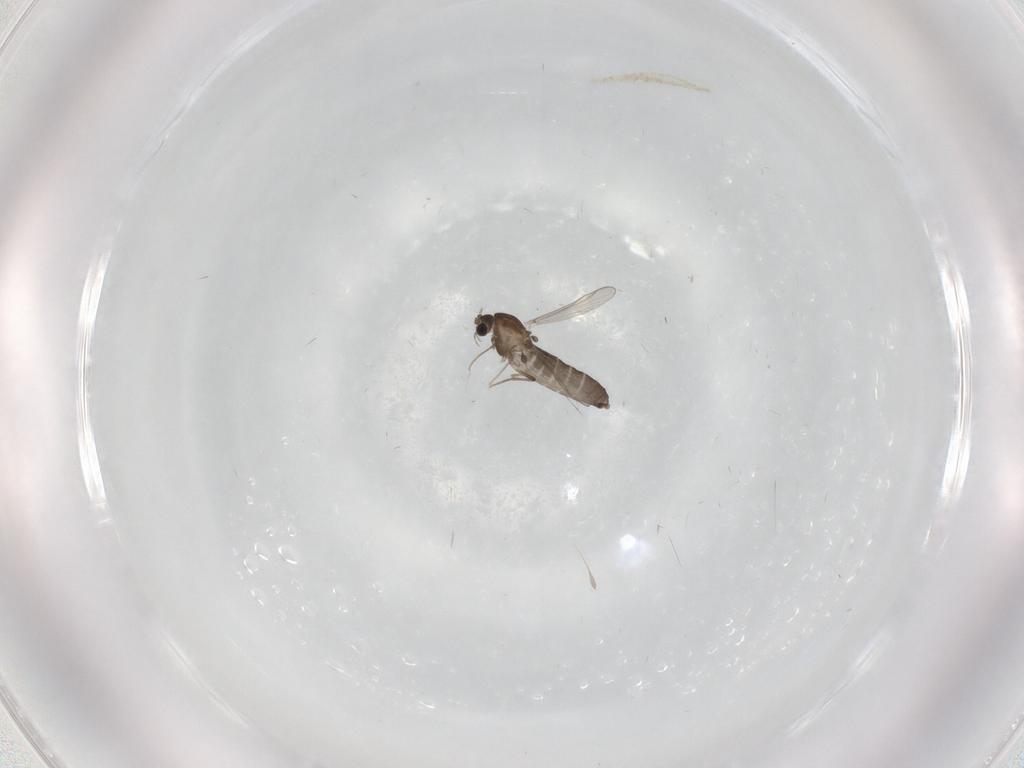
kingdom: Animalia
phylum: Arthropoda
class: Insecta
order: Diptera
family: Chironomidae
